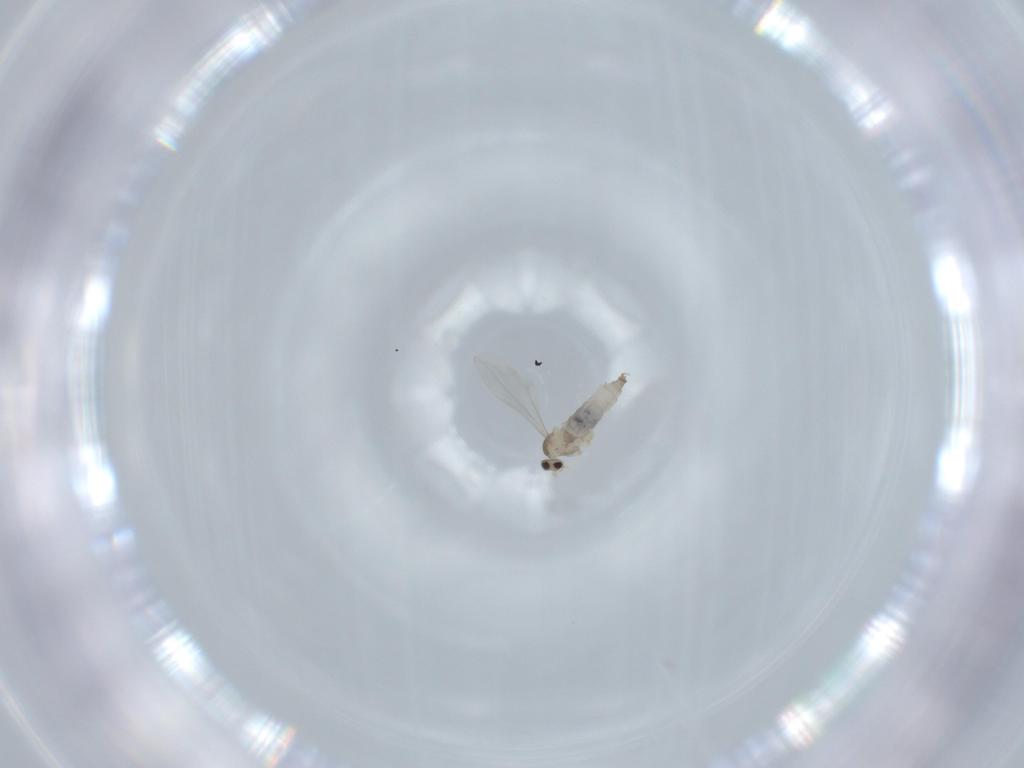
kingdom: Animalia
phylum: Arthropoda
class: Insecta
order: Diptera
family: Cecidomyiidae
